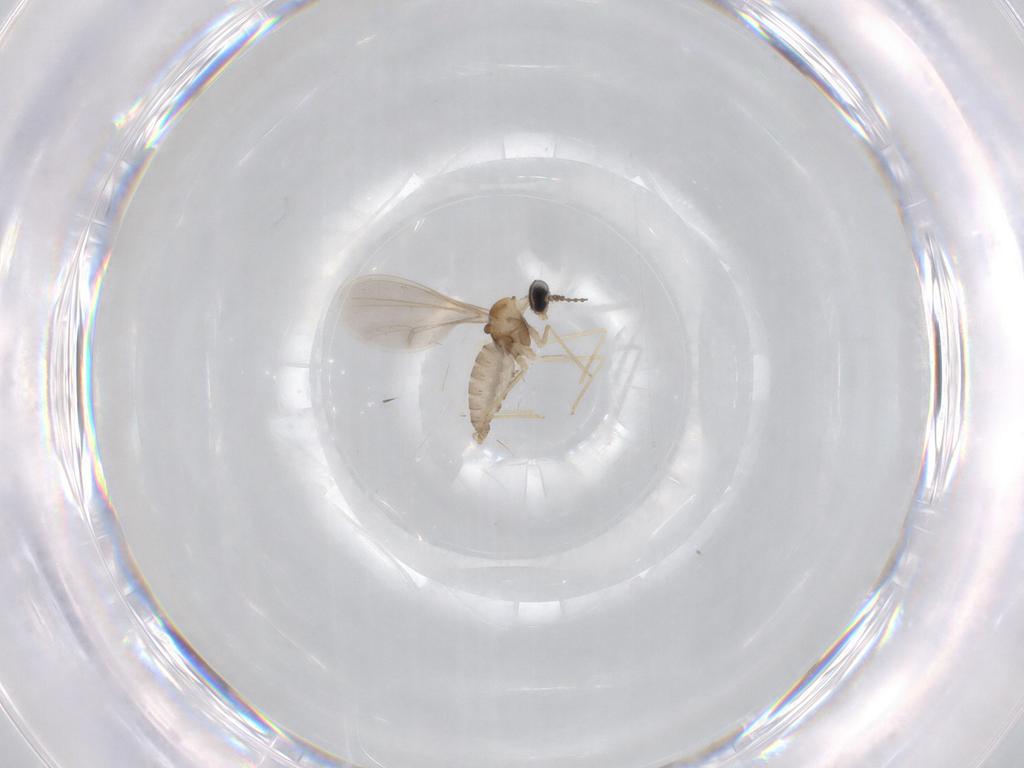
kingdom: Animalia
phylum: Arthropoda
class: Insecta
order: Diptera
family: Cecidomyiidae
